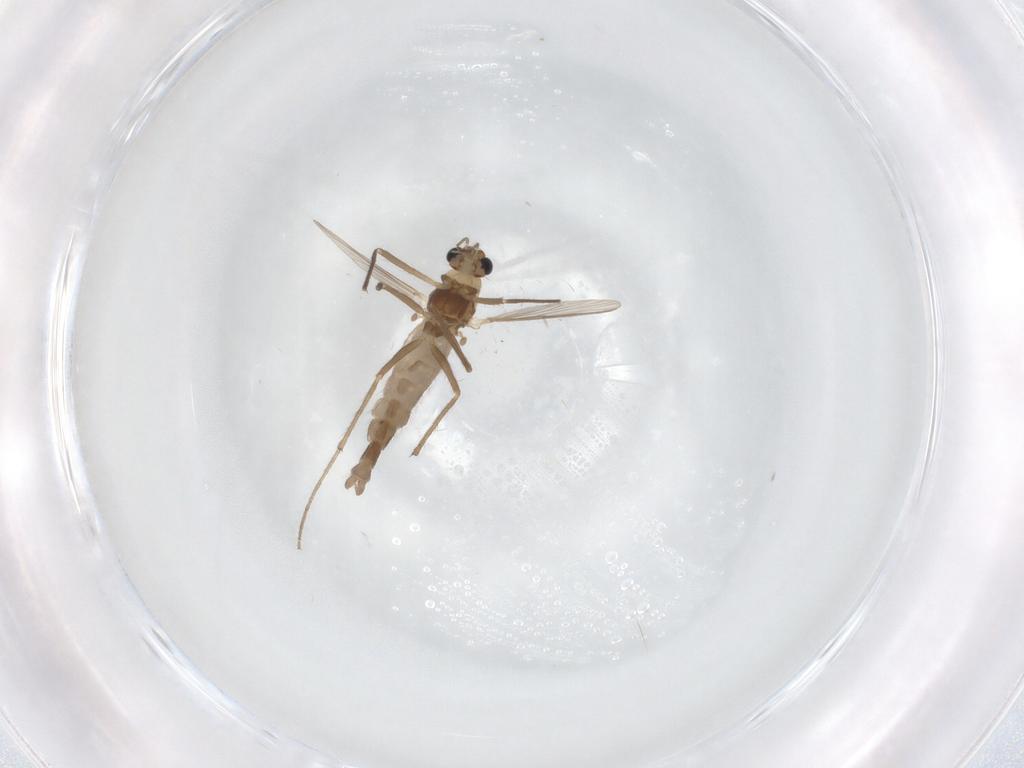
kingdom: Animalia
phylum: Arthropoda
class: Insecta
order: Diptera
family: Chironomidae
